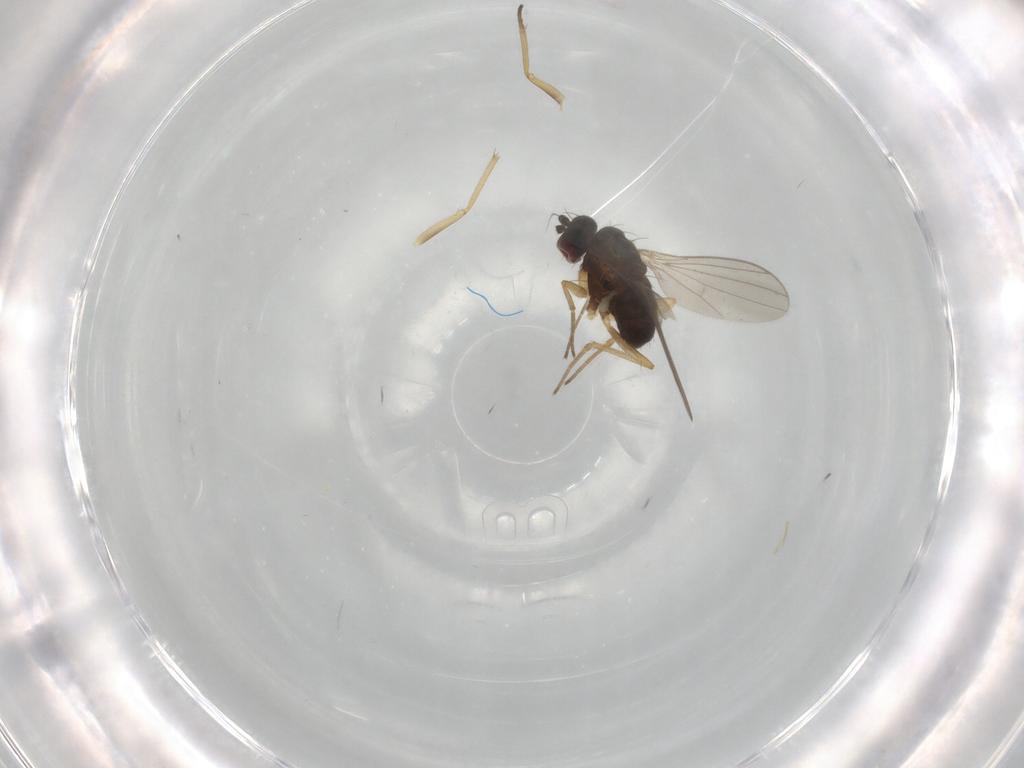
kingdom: Animalia
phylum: Arthropoda
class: Insecta
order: Diptera
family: Dolichopodidae
